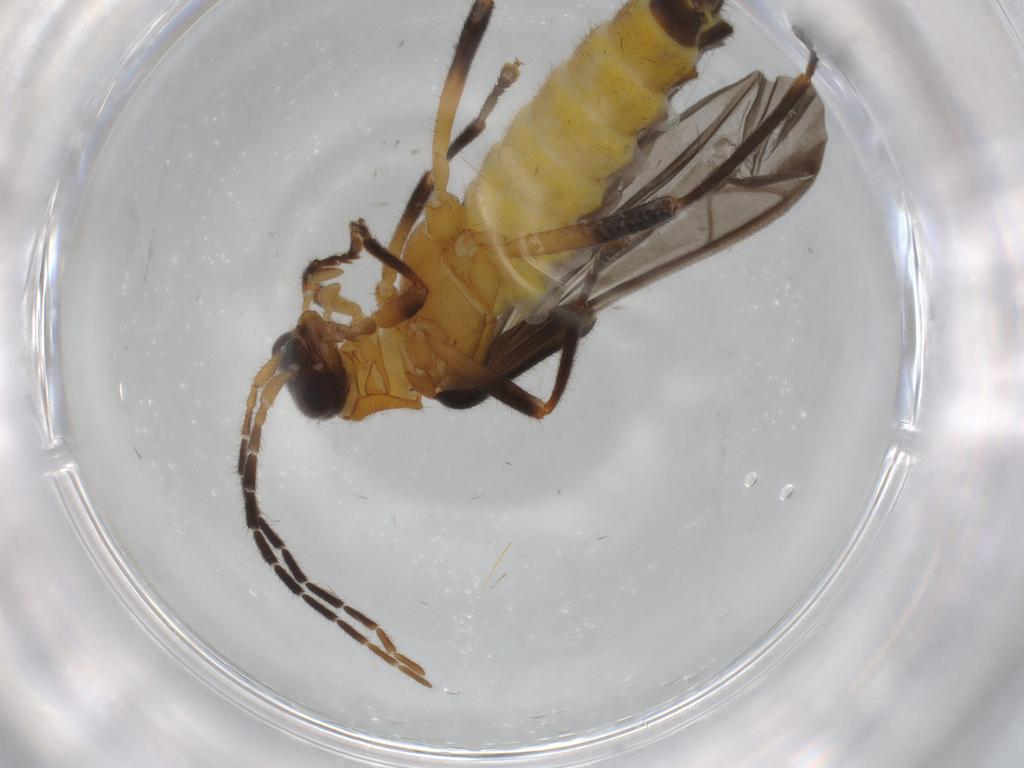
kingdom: Animalia
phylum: Arthropoda
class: Insecta
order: Coleoptera
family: Cantharidae
